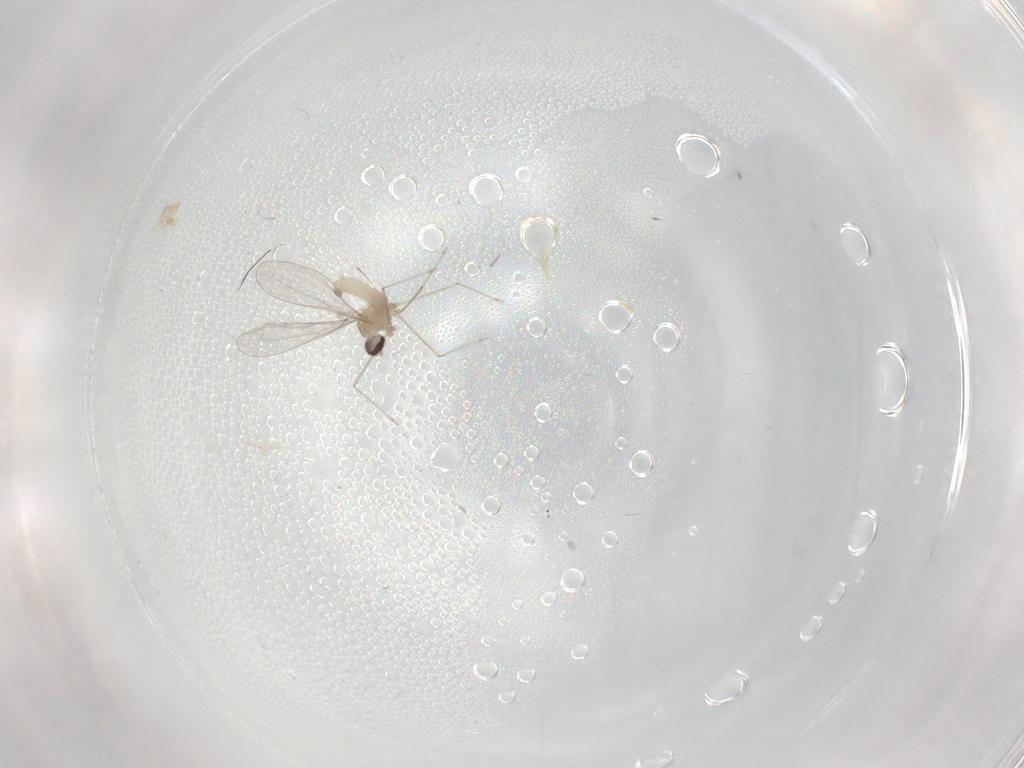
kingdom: Animalia
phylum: Arthropoda
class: Insecta
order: Diptera
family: Cecidomyiidae
